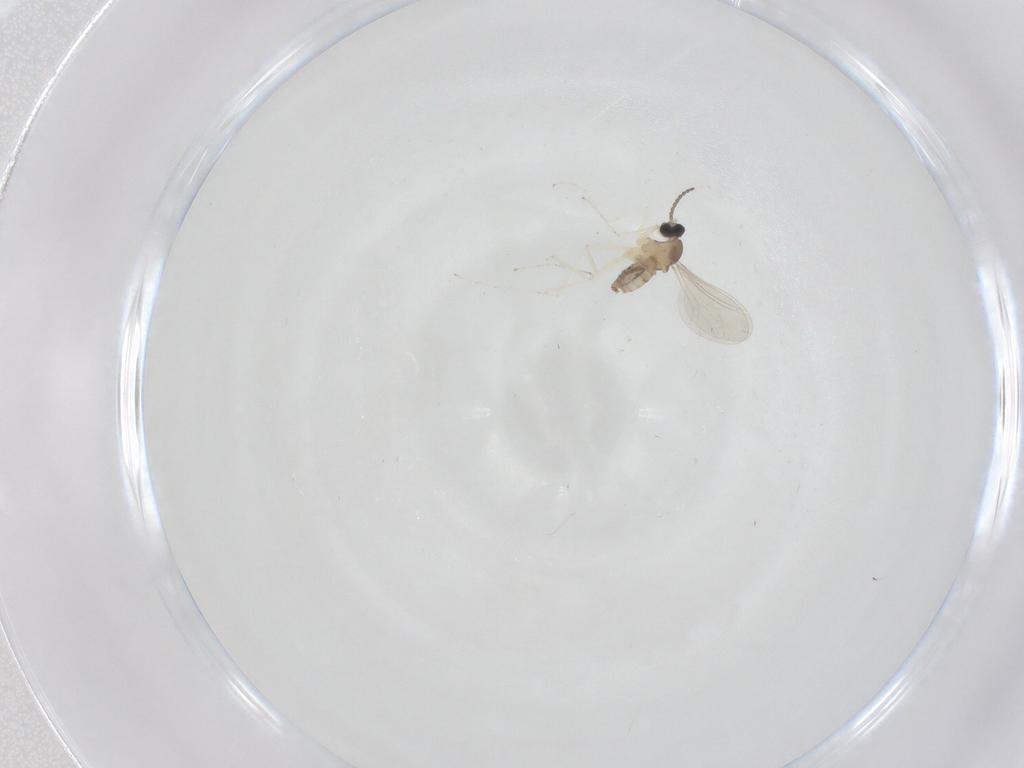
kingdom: Animalia
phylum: Arthropoda
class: Insecta
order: Diptera
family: Cecidomyiidae
